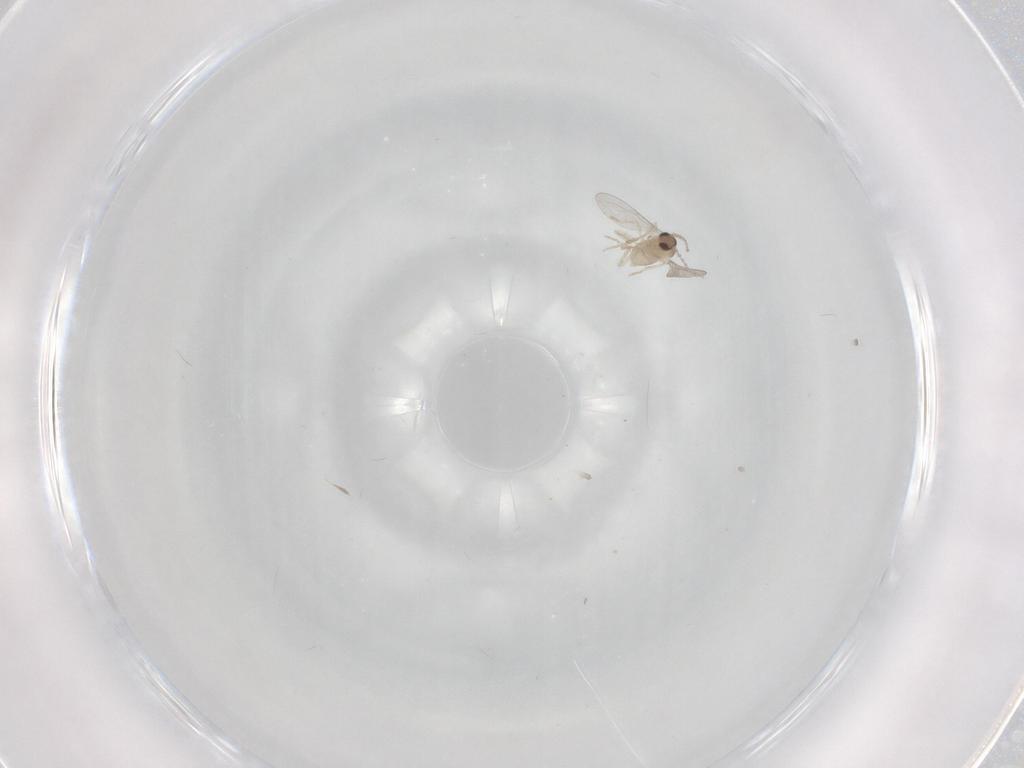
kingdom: Animalia
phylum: Arthropoda
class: Insecta
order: Diptera
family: Cecidomyiidae
